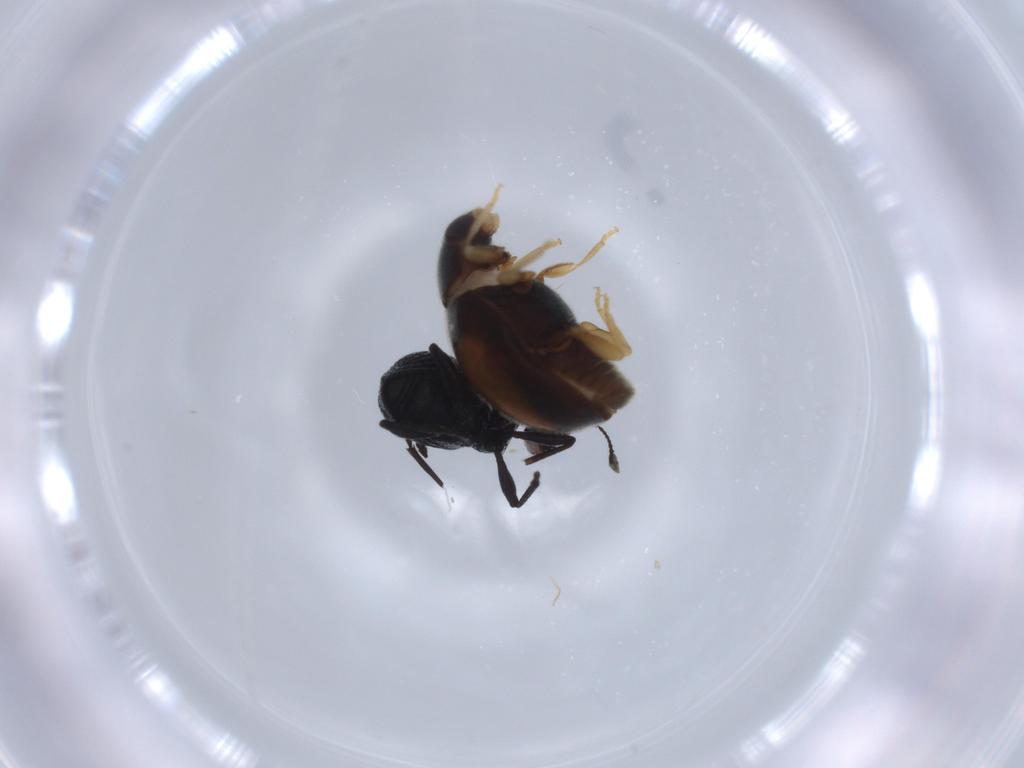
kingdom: Animalia
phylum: Arthropoda
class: Insecta
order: Coleoptera
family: Coccinellidae
